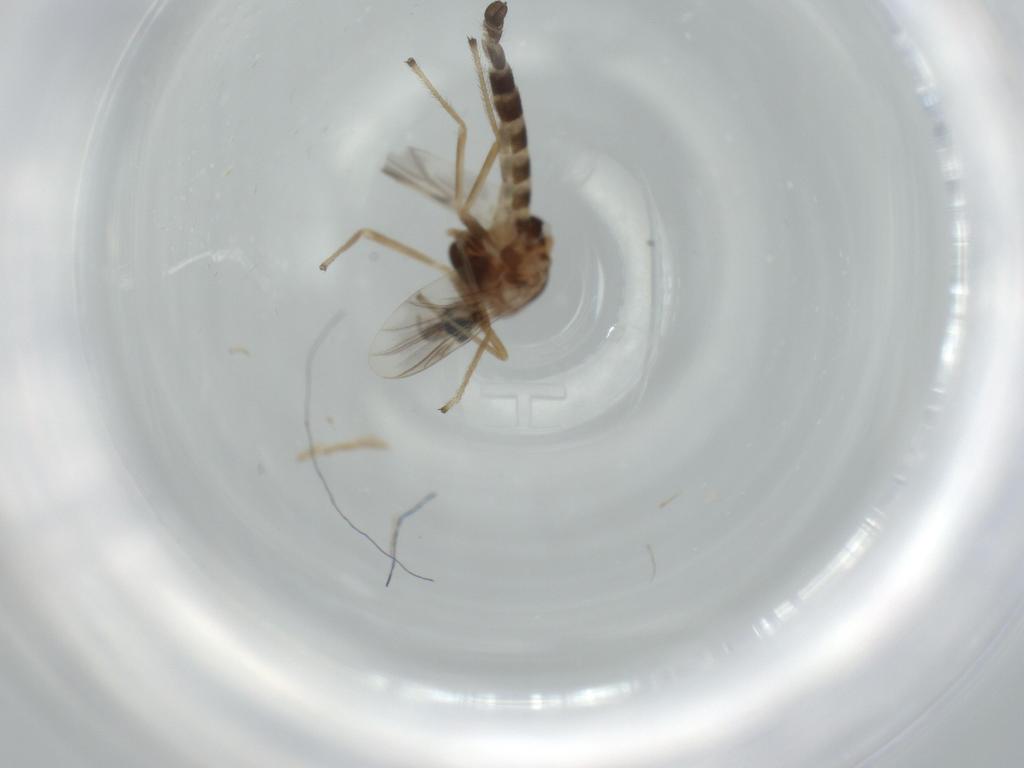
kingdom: Animalia
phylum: Arthropoda
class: Insecta
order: Diptera
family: Chironomidae
